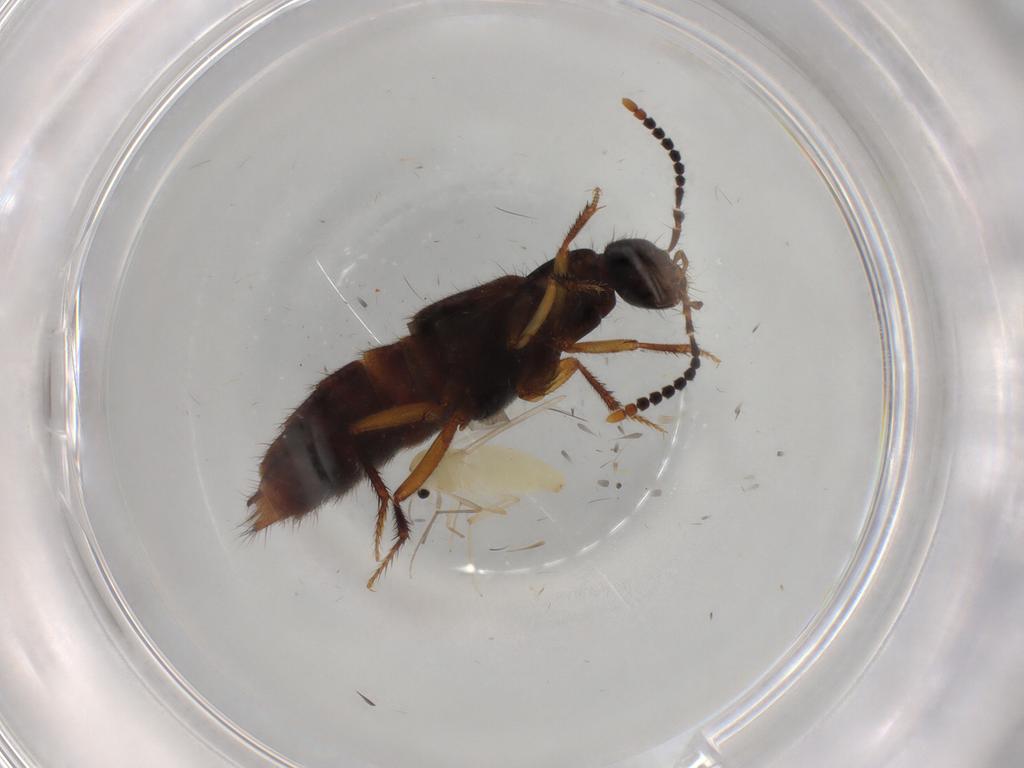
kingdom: Animalia
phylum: Arthropoda
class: Insecta
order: Diptera
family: Chironomidae
